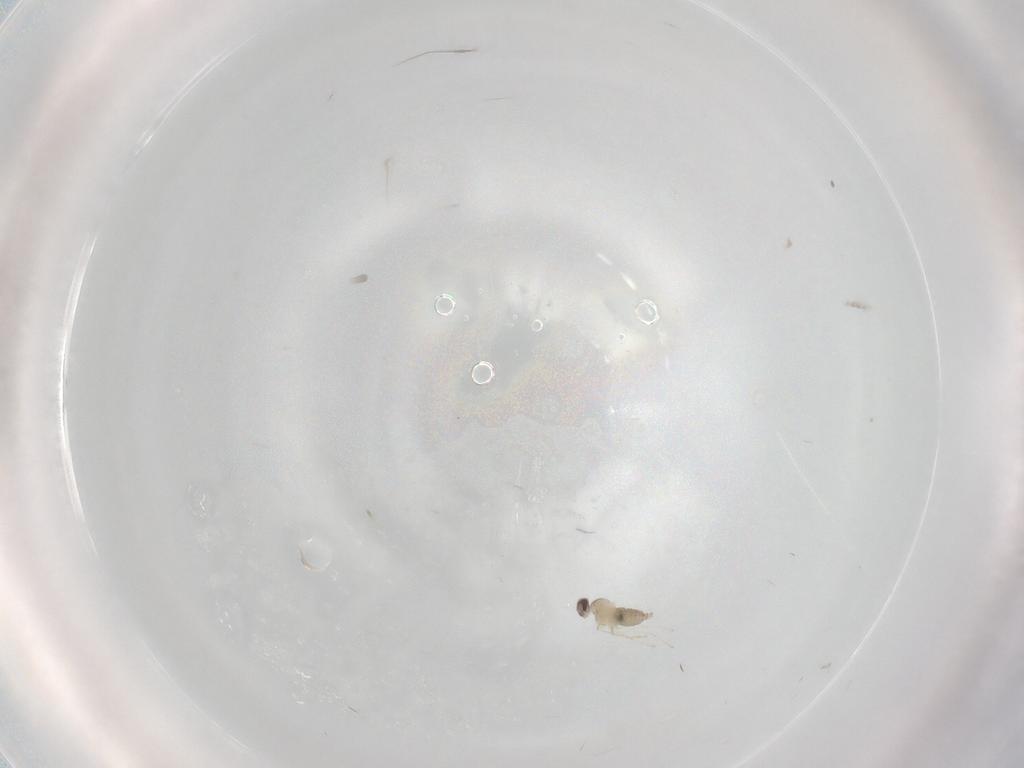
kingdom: Animalia
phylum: Arthropoda
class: Insecta
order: Diptera
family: Cecidomyiidae
